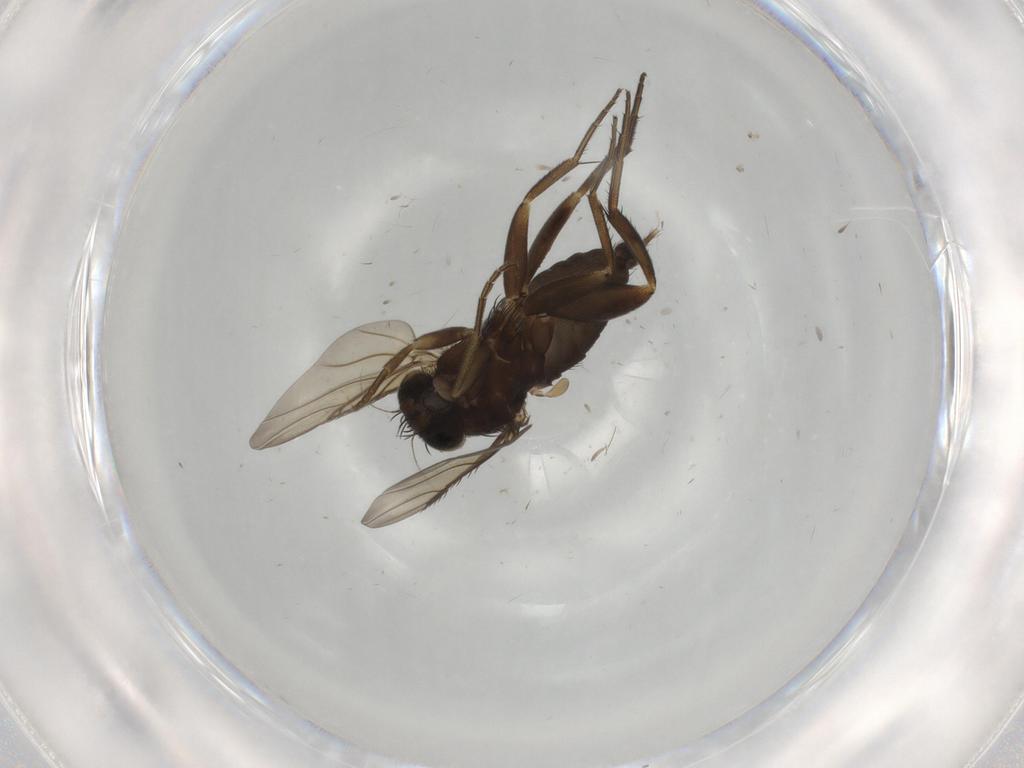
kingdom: Animalia
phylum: Arthropoda
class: Insecta
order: Diptera
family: Phoridae
